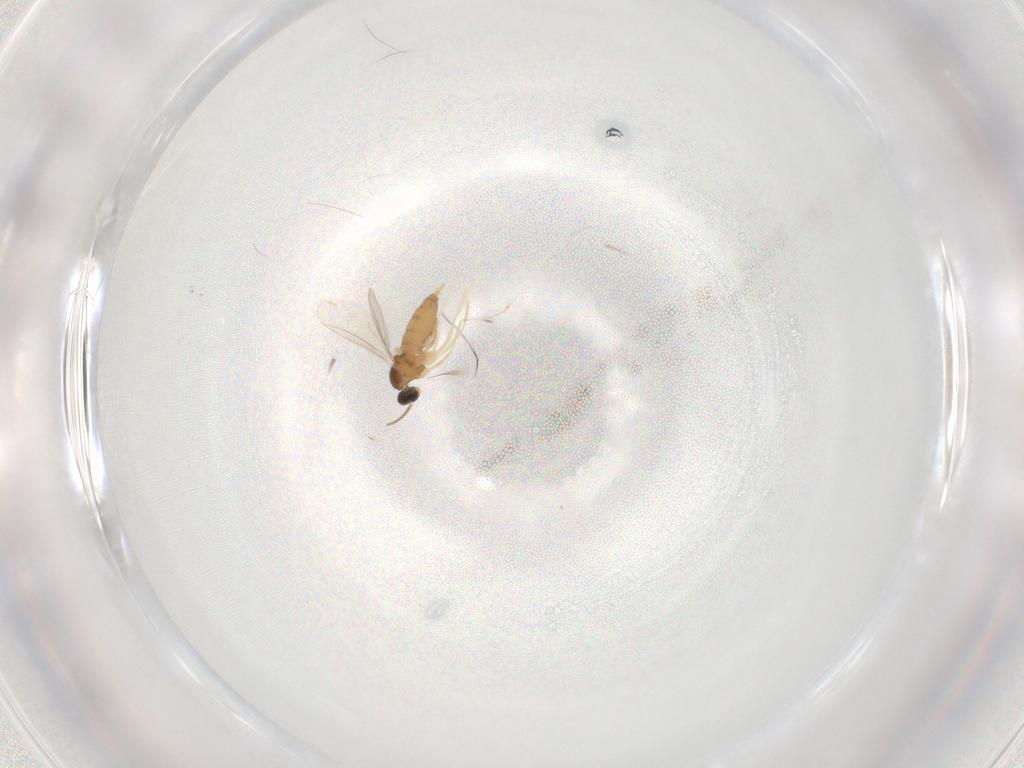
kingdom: Animalia
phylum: Arthropoda
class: Insecta
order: Diptera
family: Cecidomyiidae
